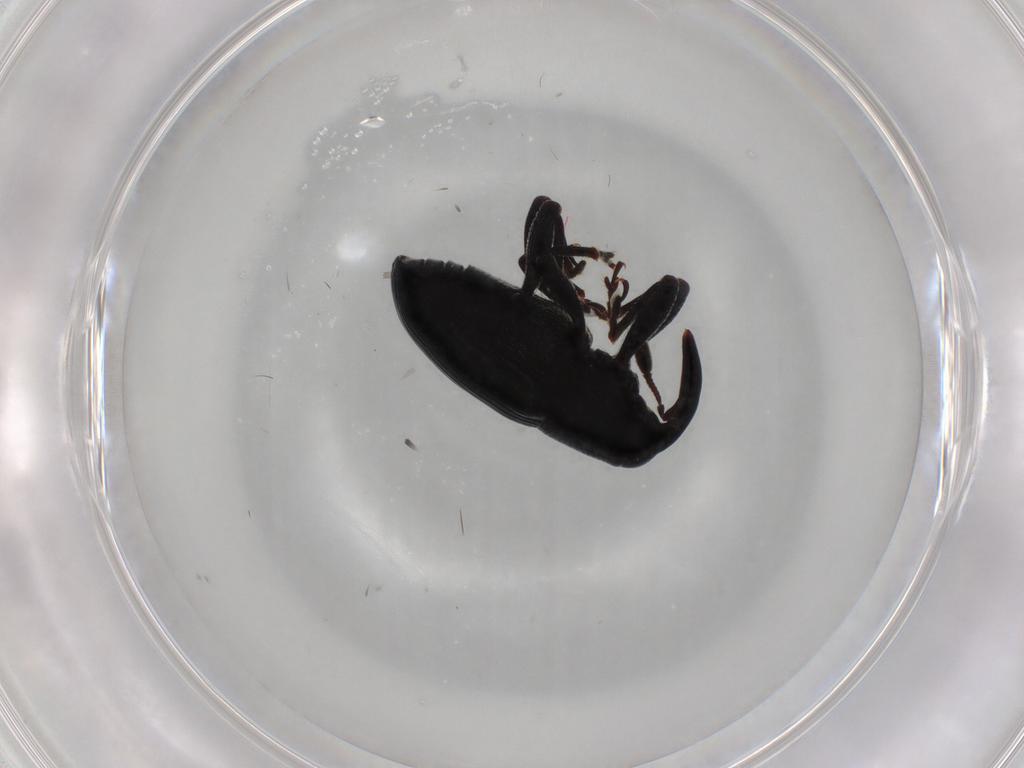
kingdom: Animalia
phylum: Arthropoda
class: Insecta
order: Coleoptera
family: Curculionidae
